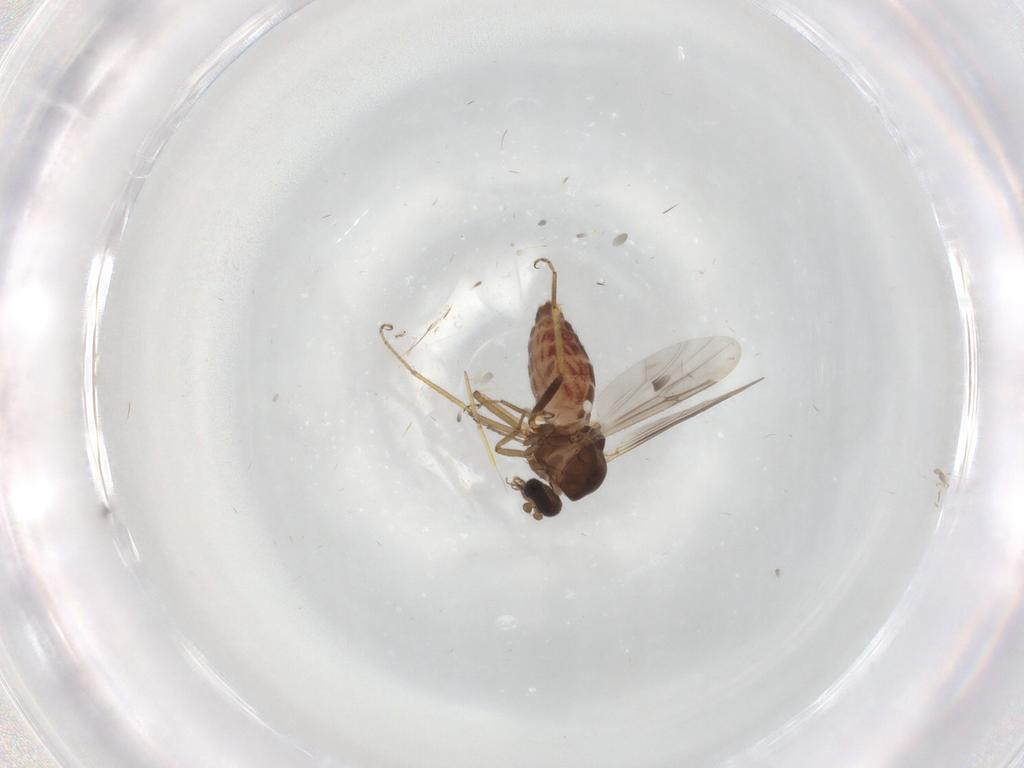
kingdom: Animalia
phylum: Arthropoda
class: Insecta
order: Diptera
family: Ceratopogonidae
